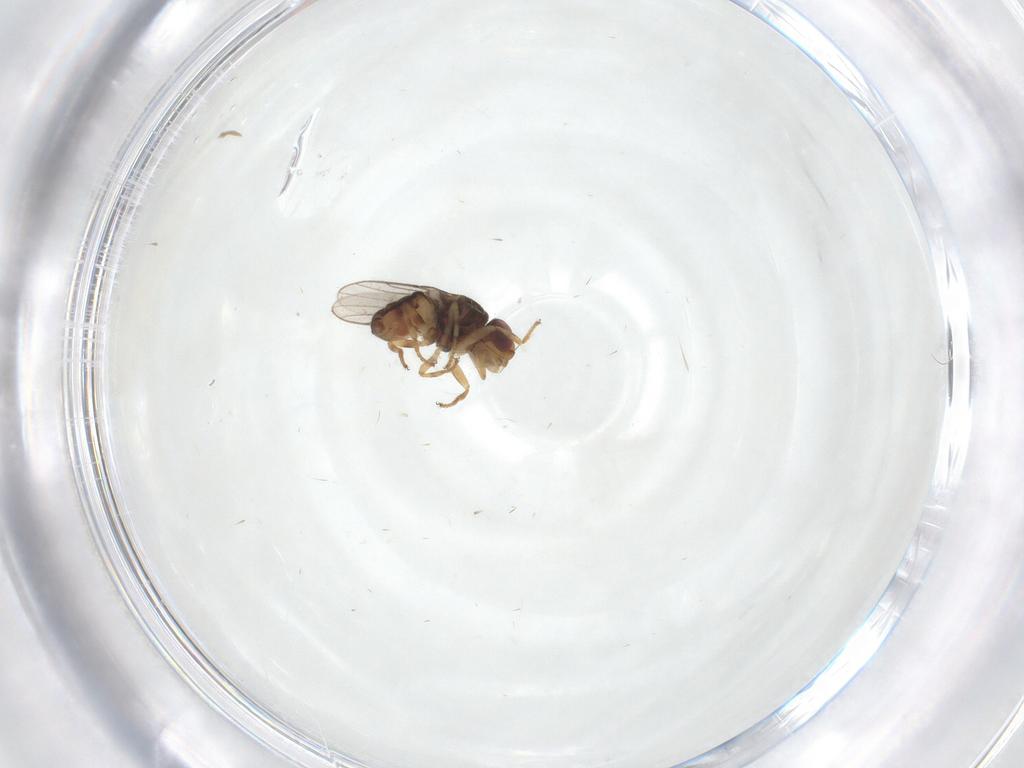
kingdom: Animalia
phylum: Arthropoda
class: Insecta
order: Diptera
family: Chloropidae
